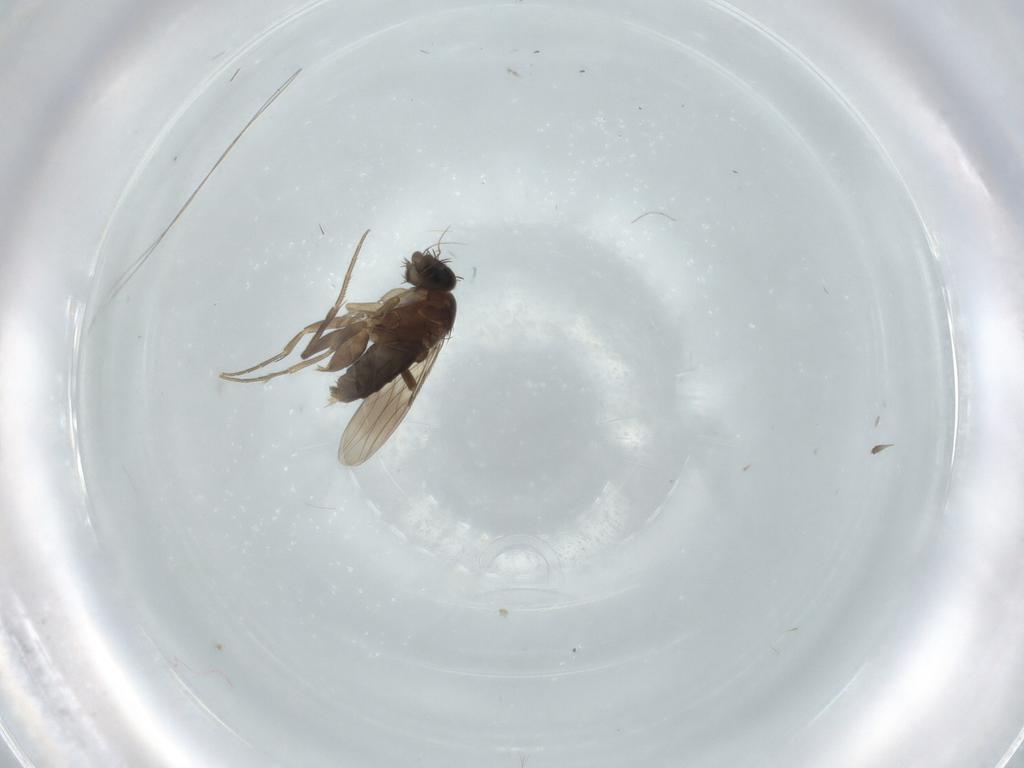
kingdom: Animalia
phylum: Arthropoda
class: Insecta
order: Diptera
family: Phoridae
